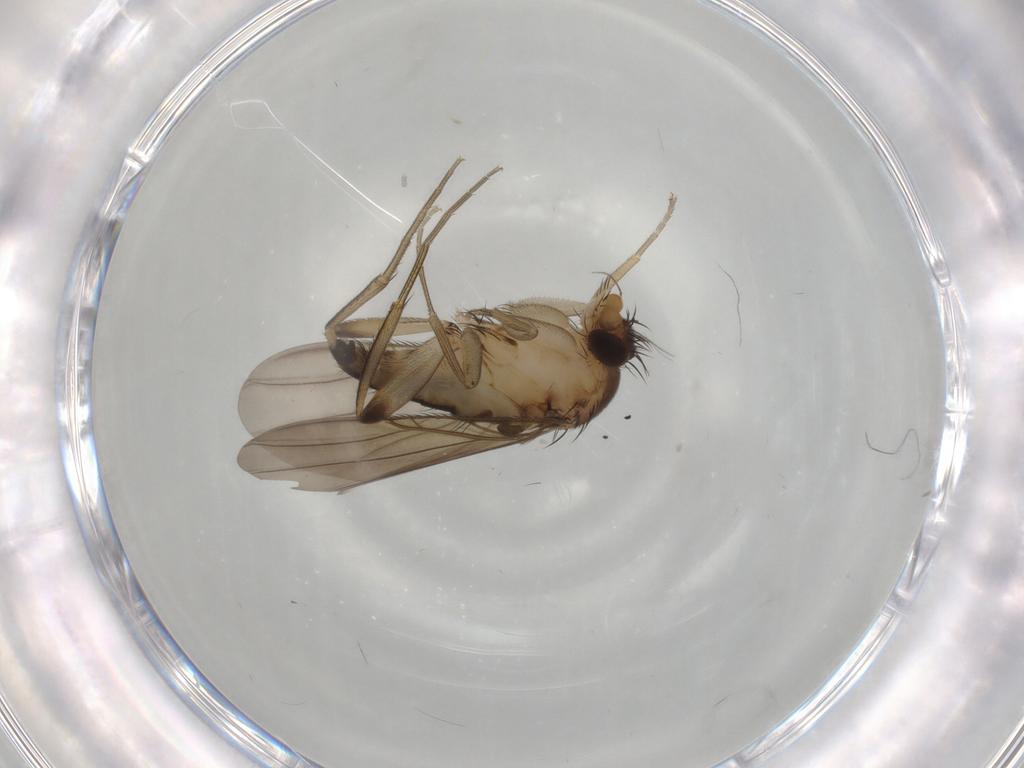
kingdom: Animalia
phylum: Arthropoda
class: Insecta
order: Diptera
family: Phoridae
